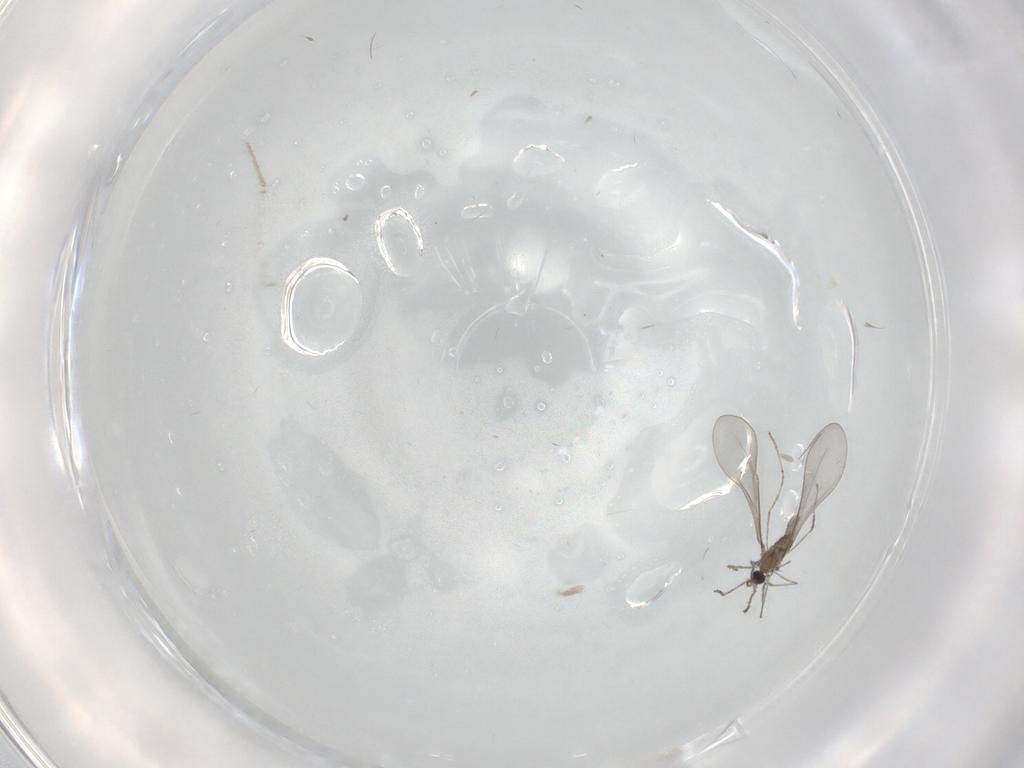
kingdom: Animalia
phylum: Arthropoda
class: Insecta
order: Diptera
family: Cecidomyiidae
